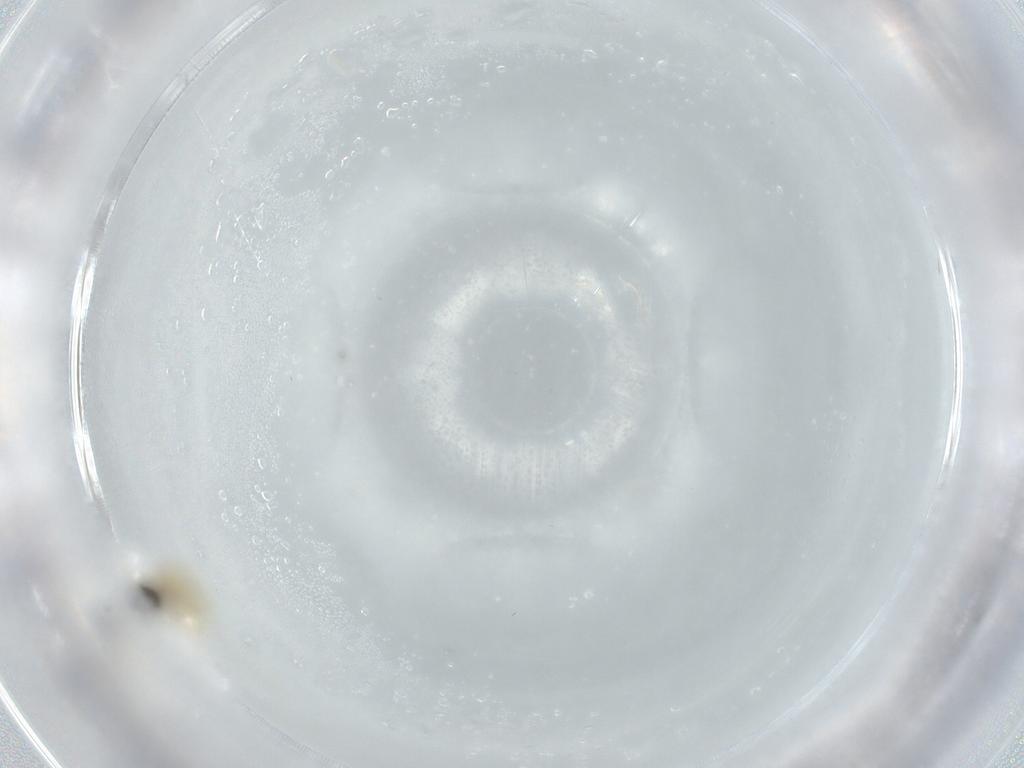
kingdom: Animalia
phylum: Arthropoda
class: Insecta
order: Diptera
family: Cecidomyiidae
